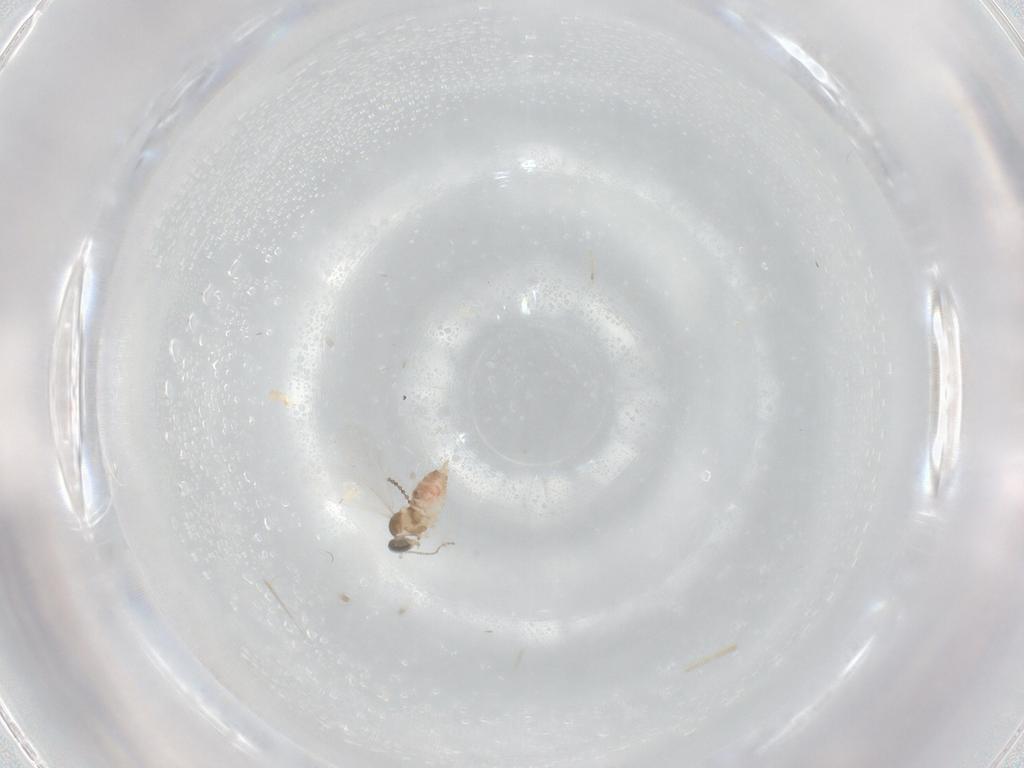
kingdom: Animalia
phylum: Arthropoda
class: Insecta
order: Diptera
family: Cecidomyiidae
